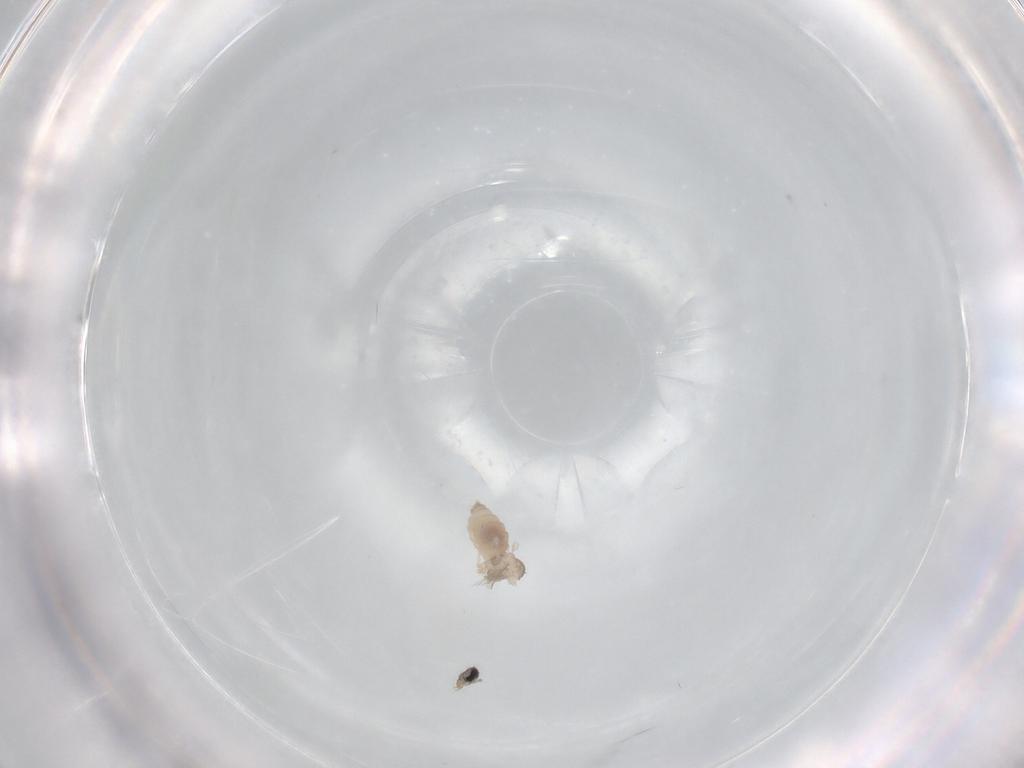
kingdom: Animalia
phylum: Arthropoda
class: Insecta
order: Diptera
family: Cecidomyiidae
